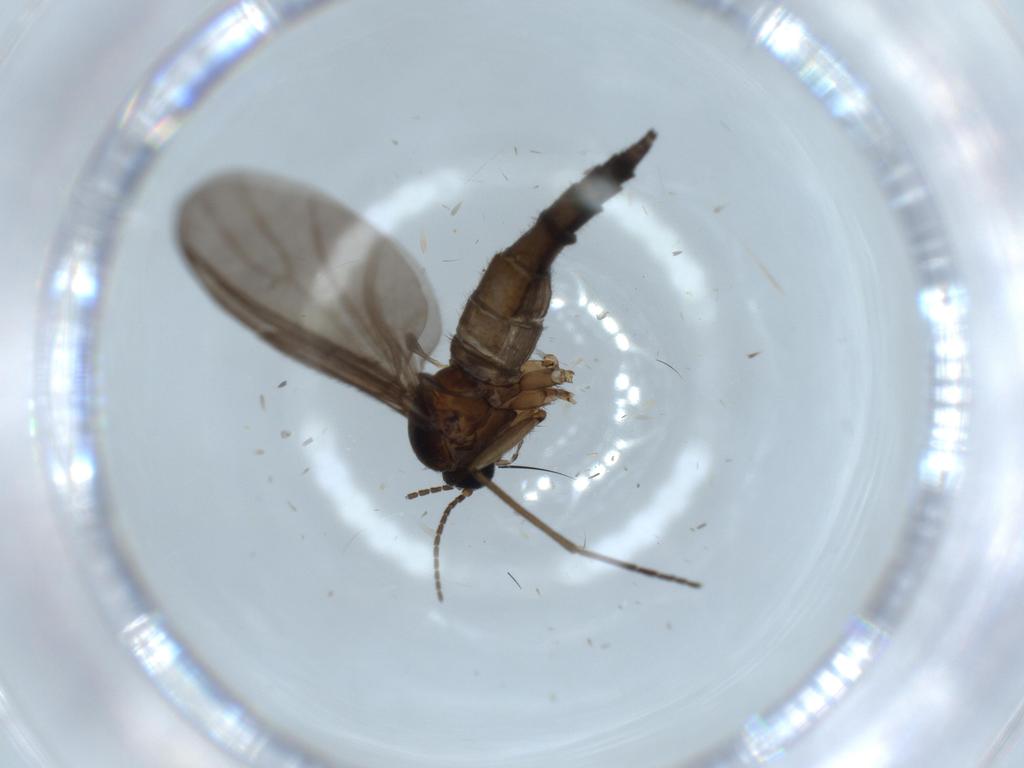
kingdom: Animalia
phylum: Arthropoda
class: Insecta
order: Diptera
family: Sciaridae
